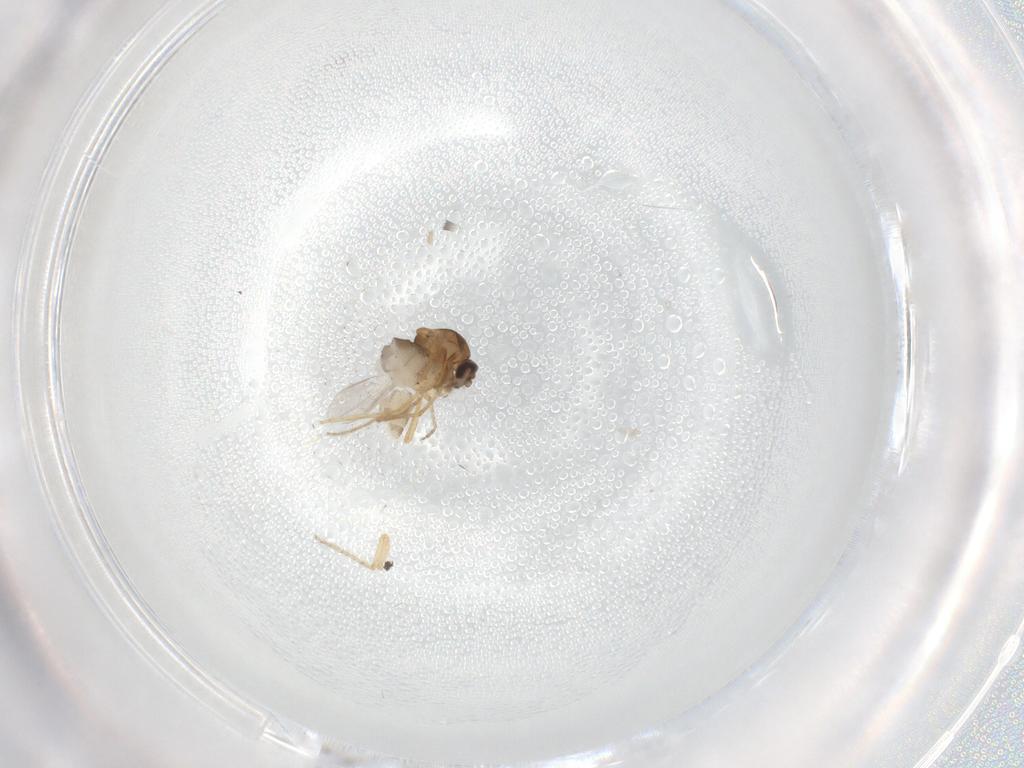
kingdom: Animalia
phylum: Arthropoda
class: Insecta
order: Diptera
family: Ceratopogonidae
